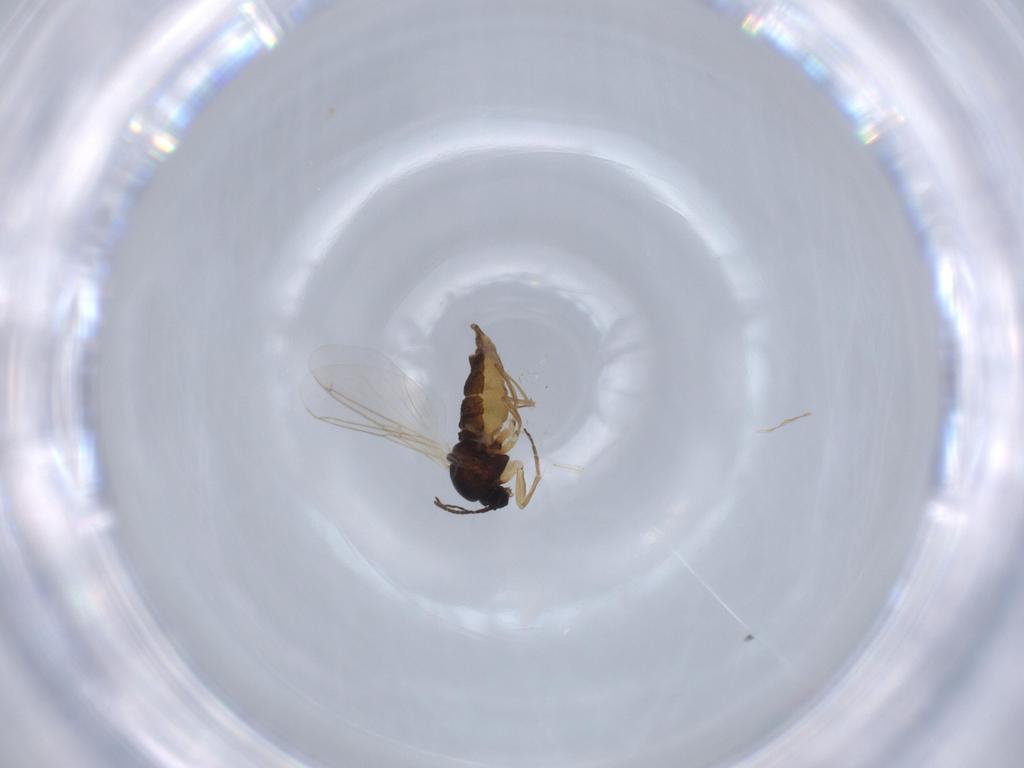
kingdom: Animalia
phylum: Arthropoda
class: Insecta
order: Diptera
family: Sciaridae
